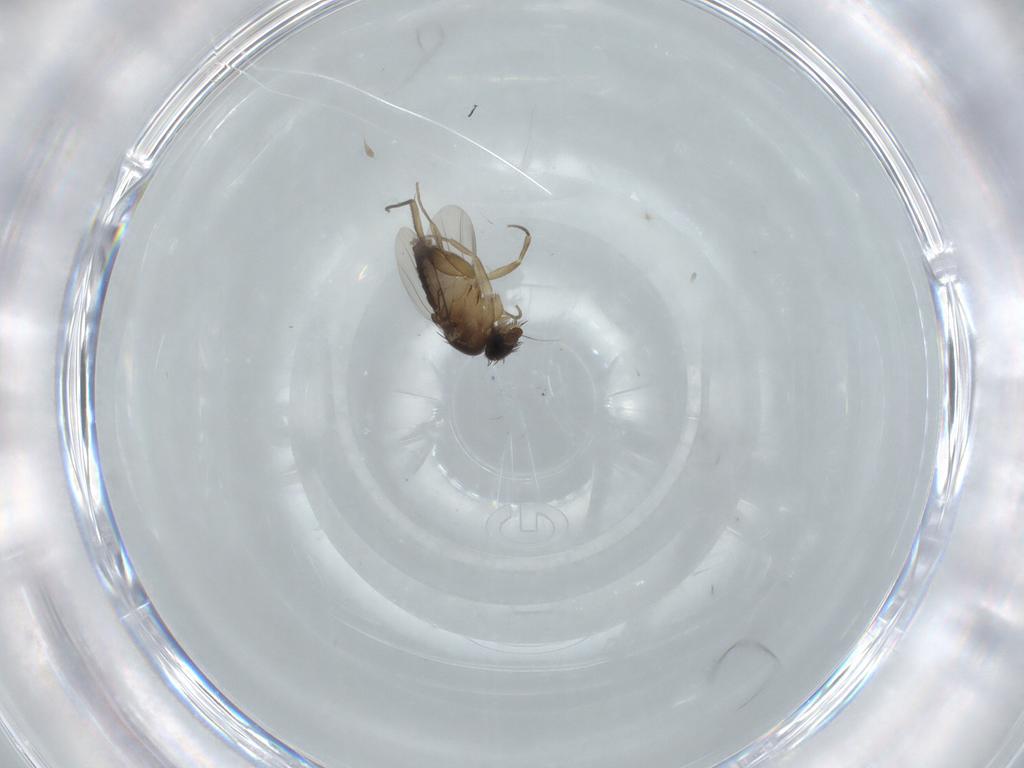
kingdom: Animalia
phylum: Arthropoda
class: Insecta
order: Diptera
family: Phoridae
